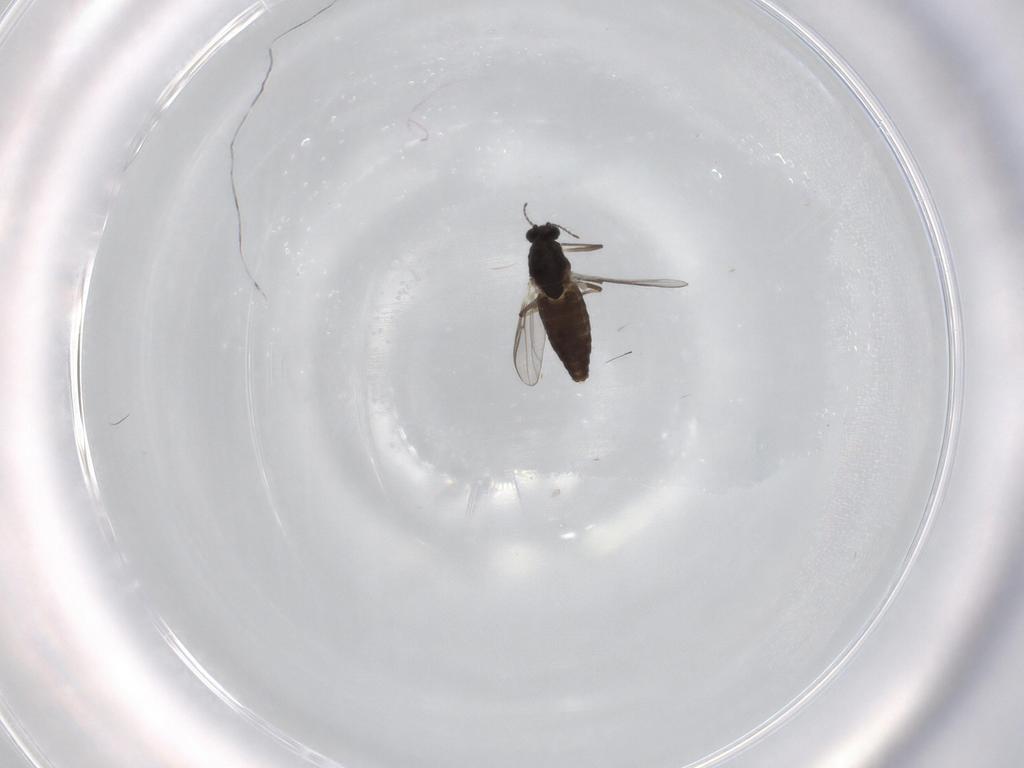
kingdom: Animalia
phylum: Arthropoda
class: Insecta
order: Diptera
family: Chironomidae
